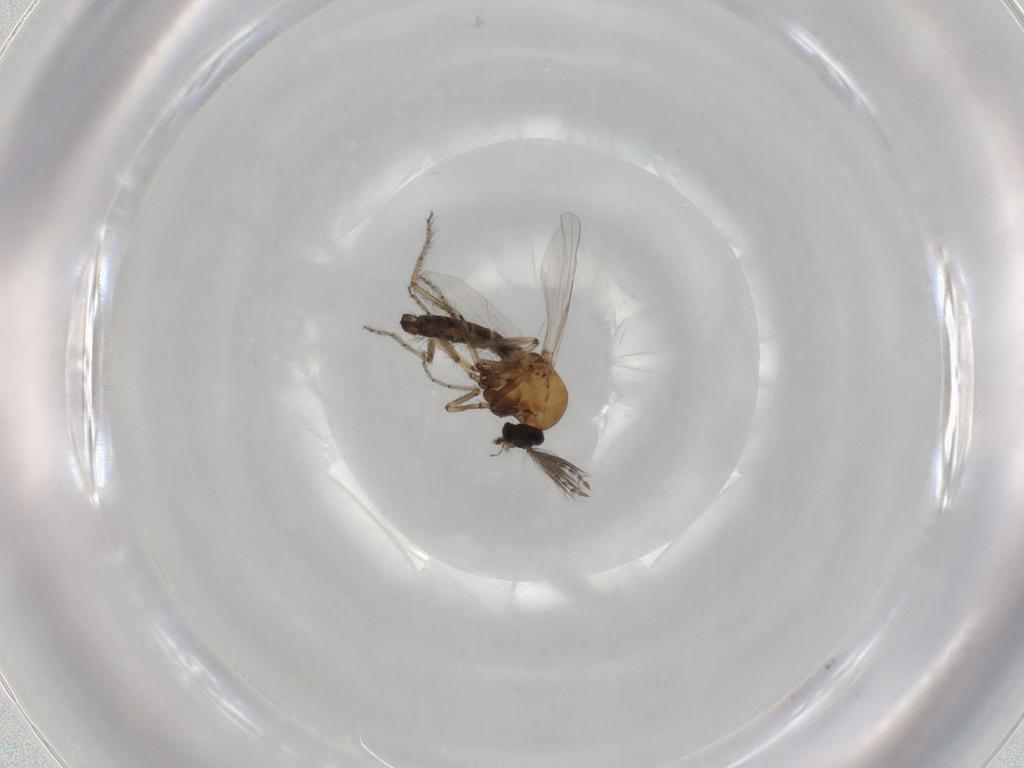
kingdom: Animalia
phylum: Arthropoda
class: Insecta
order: Diptera
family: Ceratopogonidae
